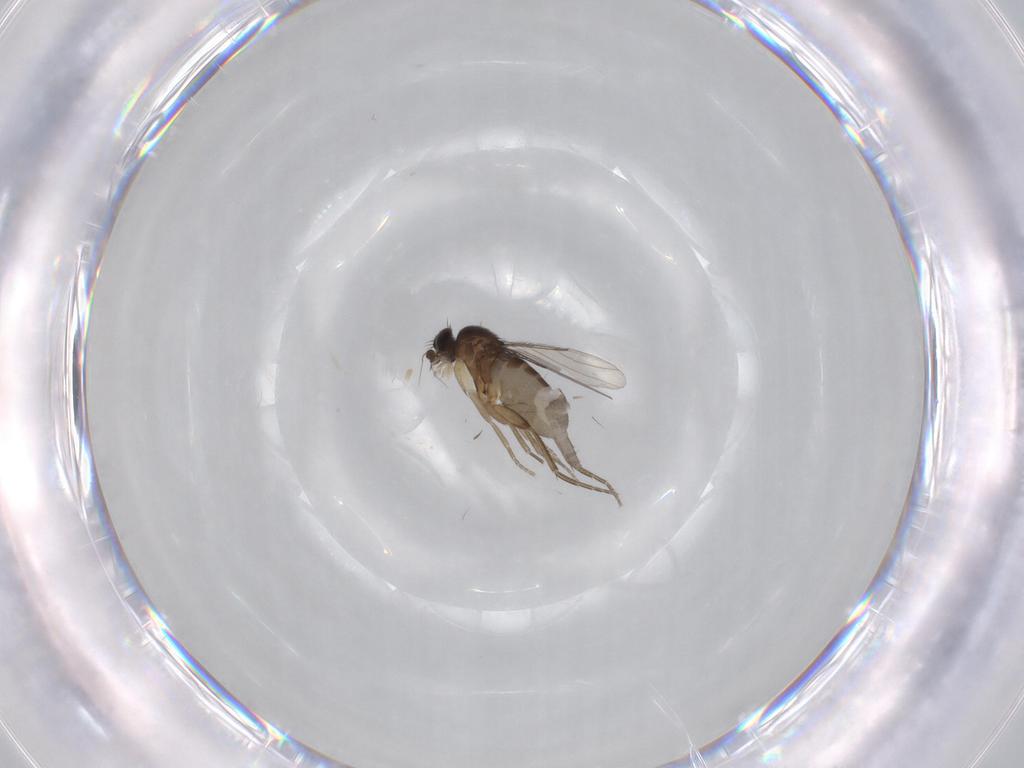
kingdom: Animalia
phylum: Arthropoda
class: Insecta
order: Diptera
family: Phoridae
